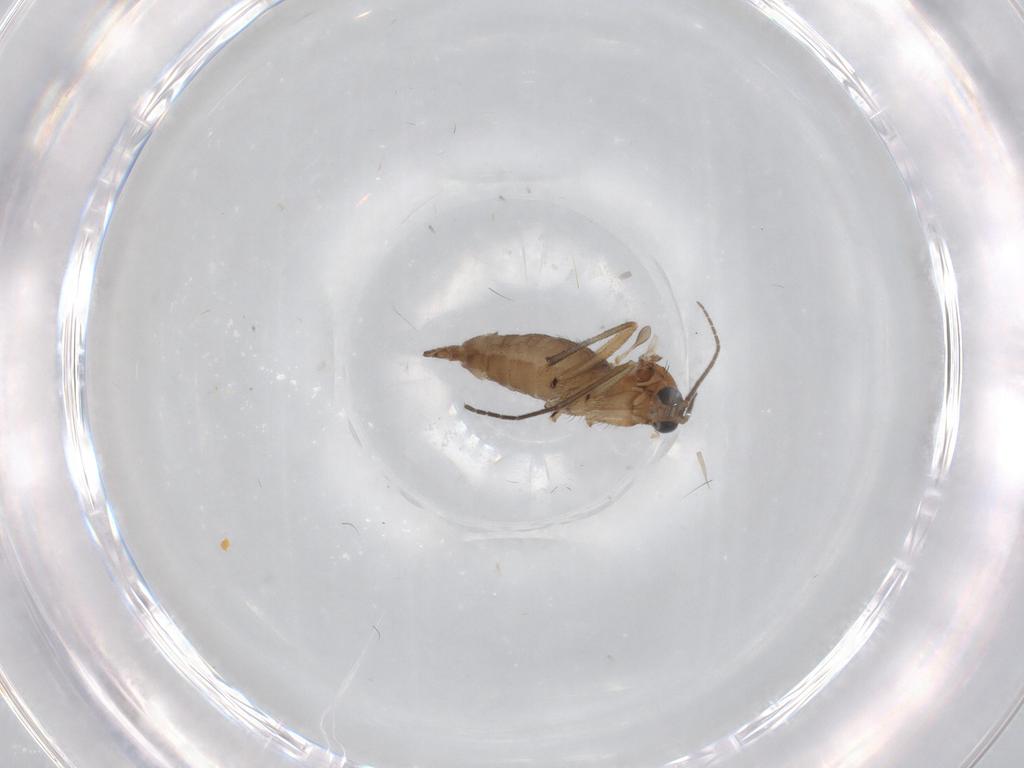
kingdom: Animalia
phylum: Arthropoda
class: Insecta
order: Diptera
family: Sciaridae
